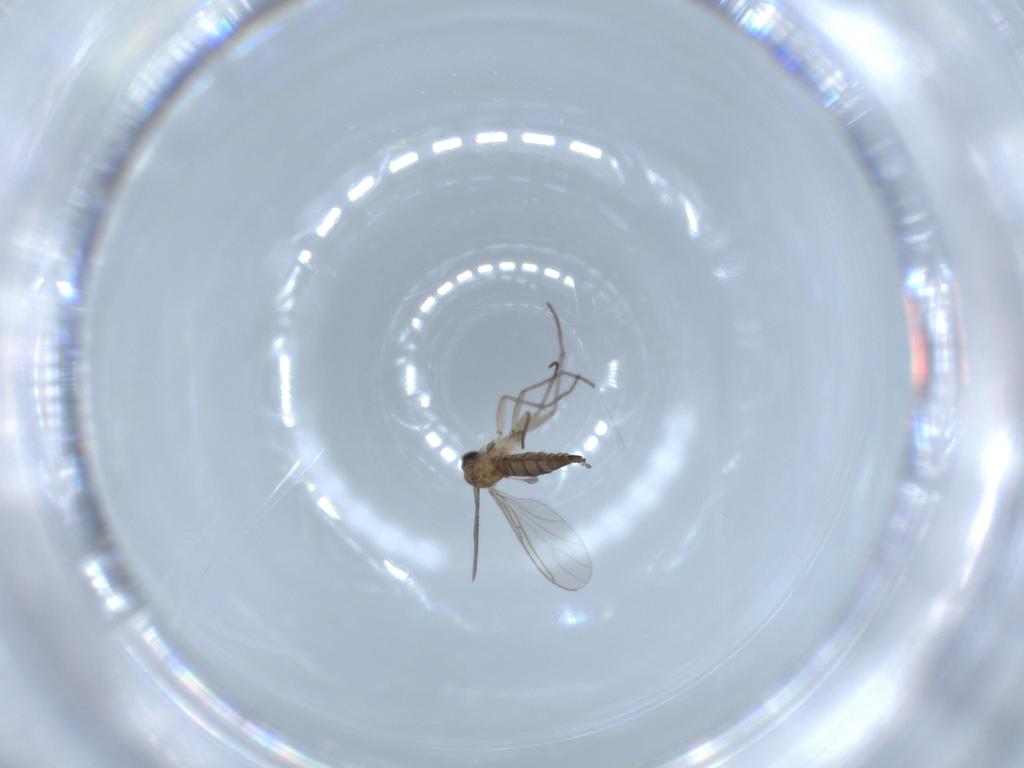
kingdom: Animalia
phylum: Arthropoda
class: Insecta
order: Diptera
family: Sciaridae
